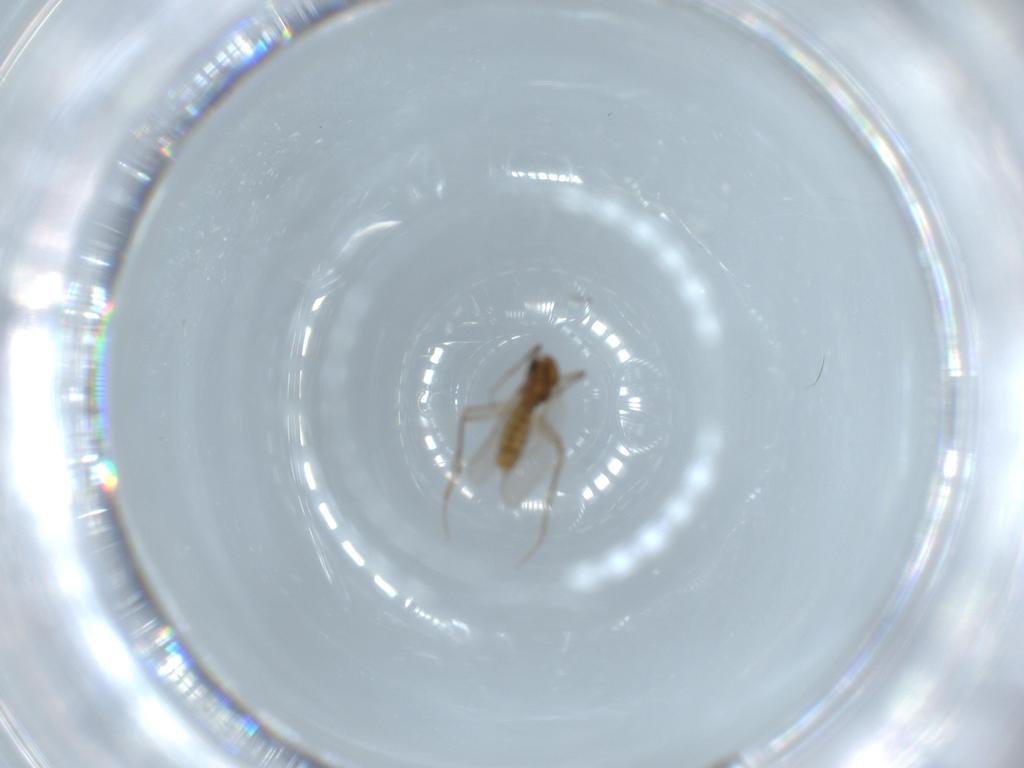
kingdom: Animalia
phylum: Arthropoda
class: Insecta
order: Diptera
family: Chironomidae
